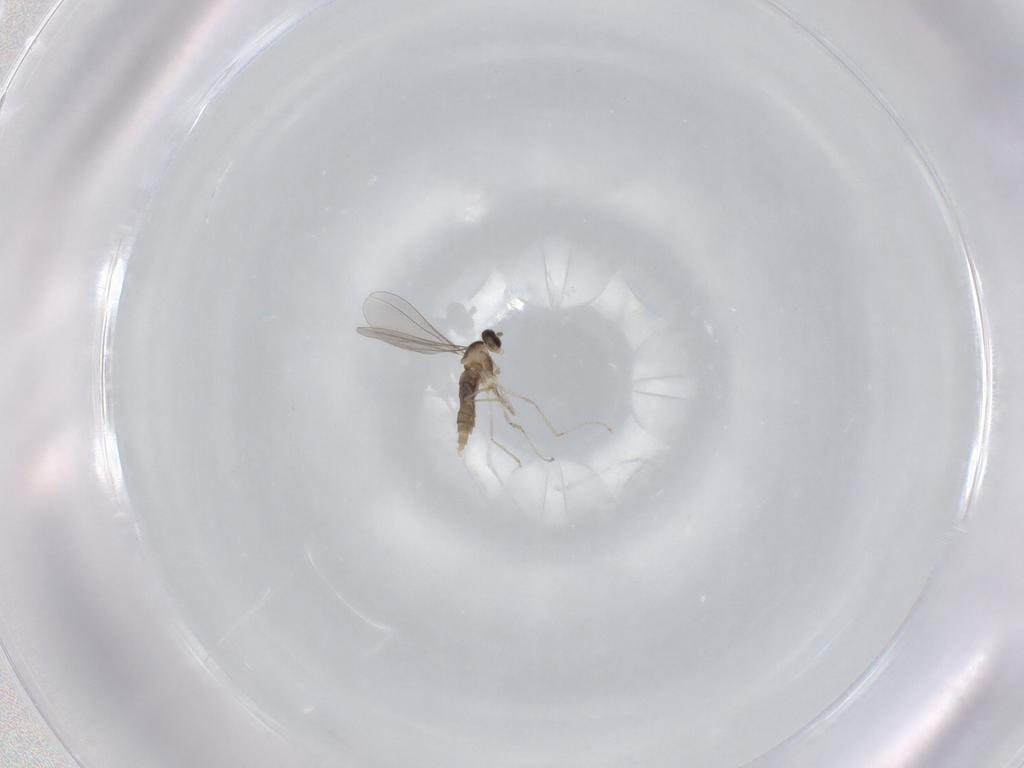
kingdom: Animalia
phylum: Arthropoda
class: Insecta
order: Diptera
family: Cecidomyiidae
